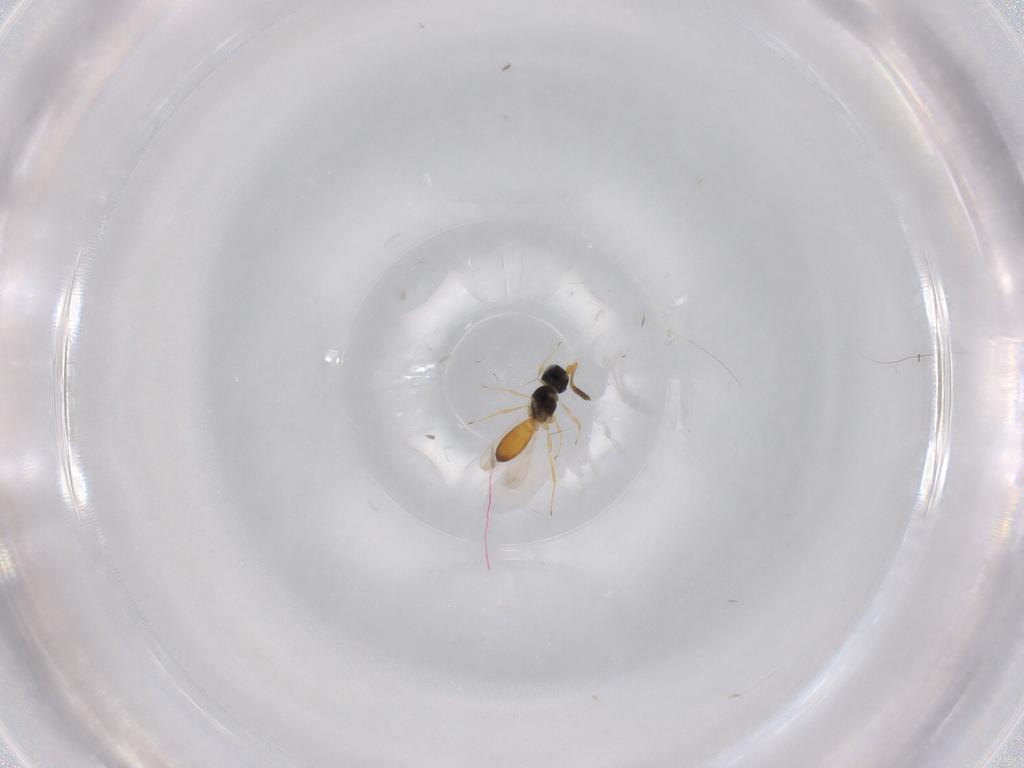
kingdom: Animalia
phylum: Arthropoda
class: Insecta
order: Hymenoptera
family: Scelionidae
